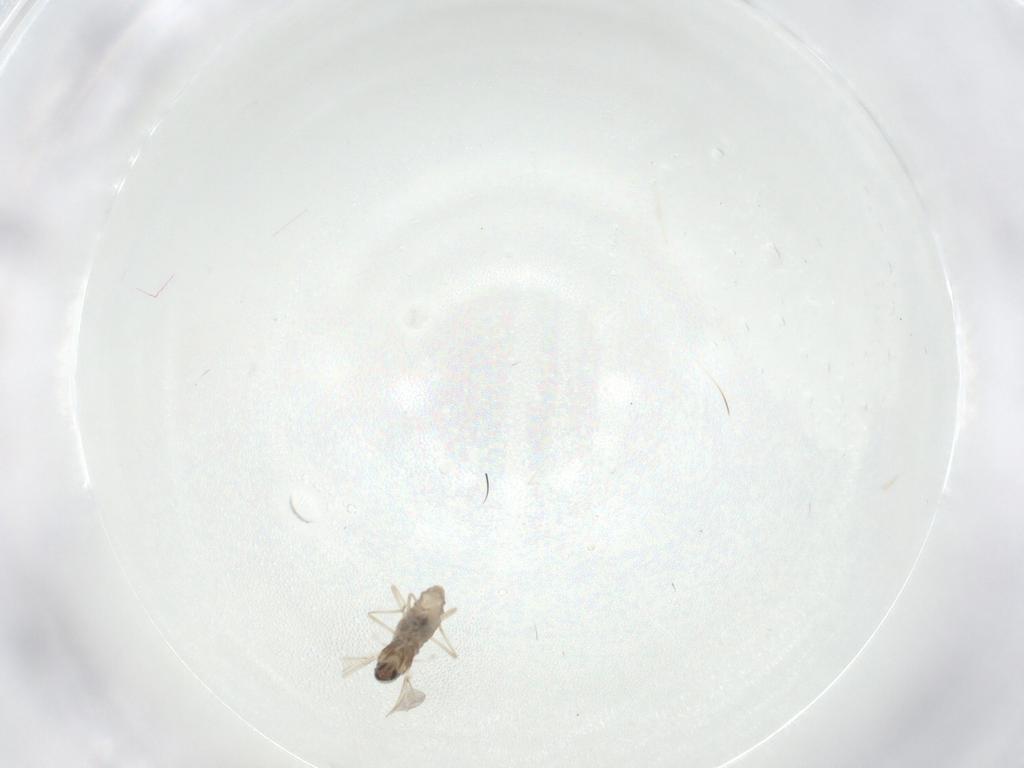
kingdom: Animalia
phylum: Arthropoda
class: Insecta
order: Diptera
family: Cecidomyiidae
